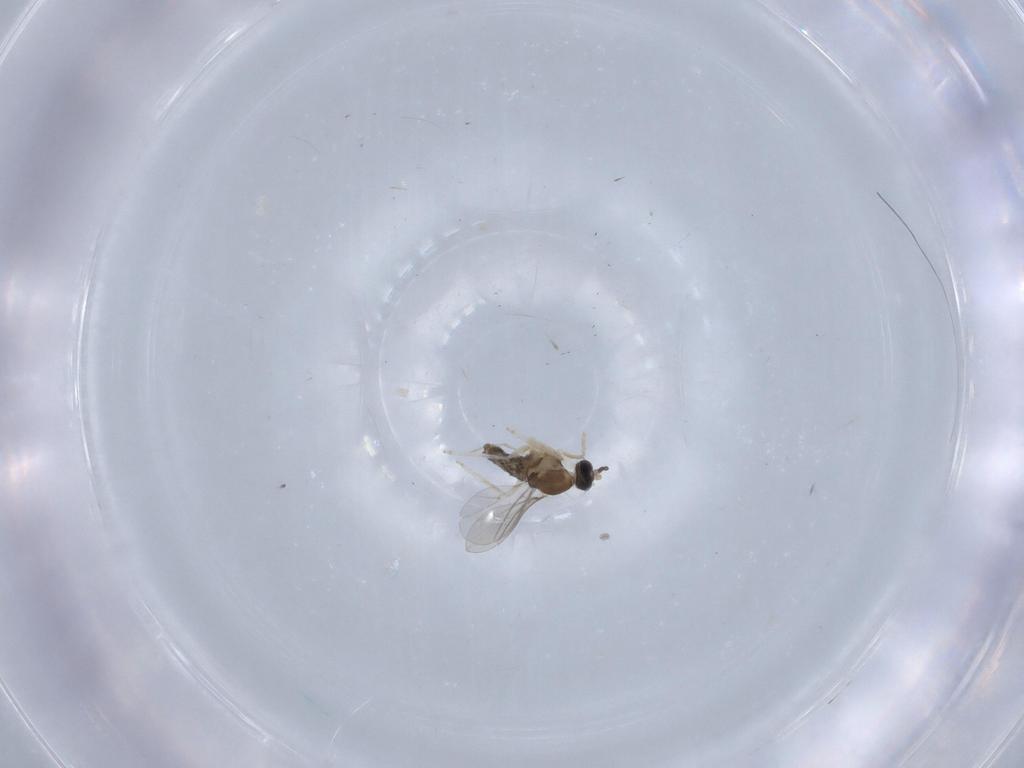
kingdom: Animalia
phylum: Arthropoda
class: Insecta
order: Diptera
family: Cecidomyiidae
